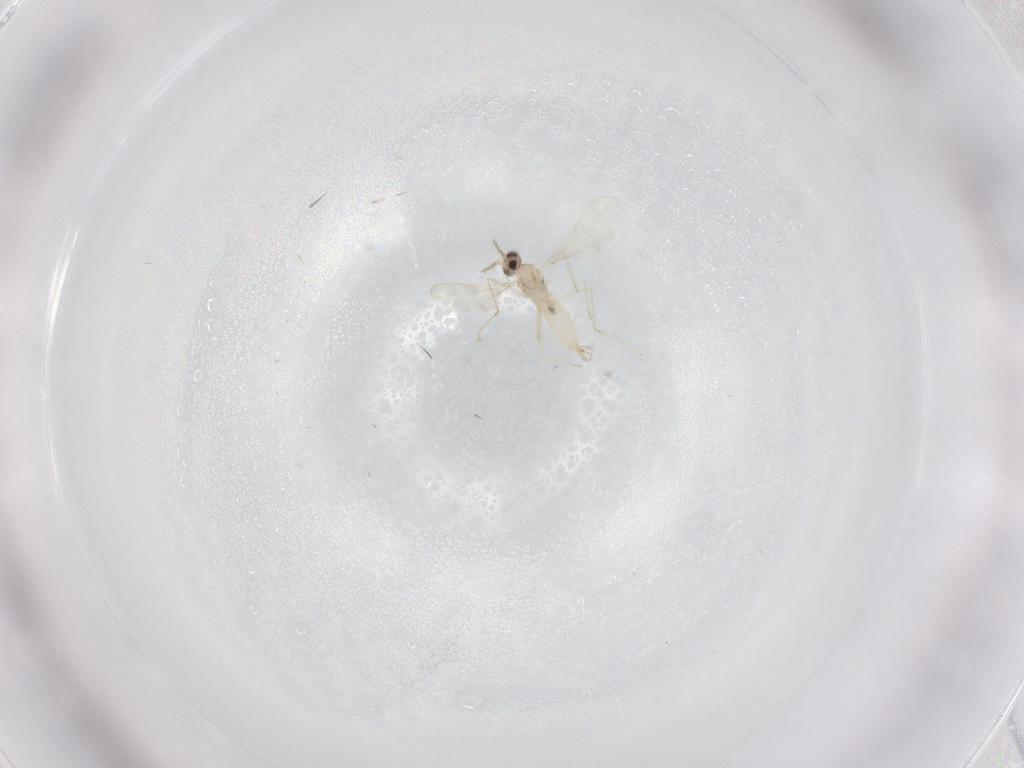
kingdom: Animalia
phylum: Arthropoda
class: Insecta
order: Diptera
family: Cecidomyiidae
